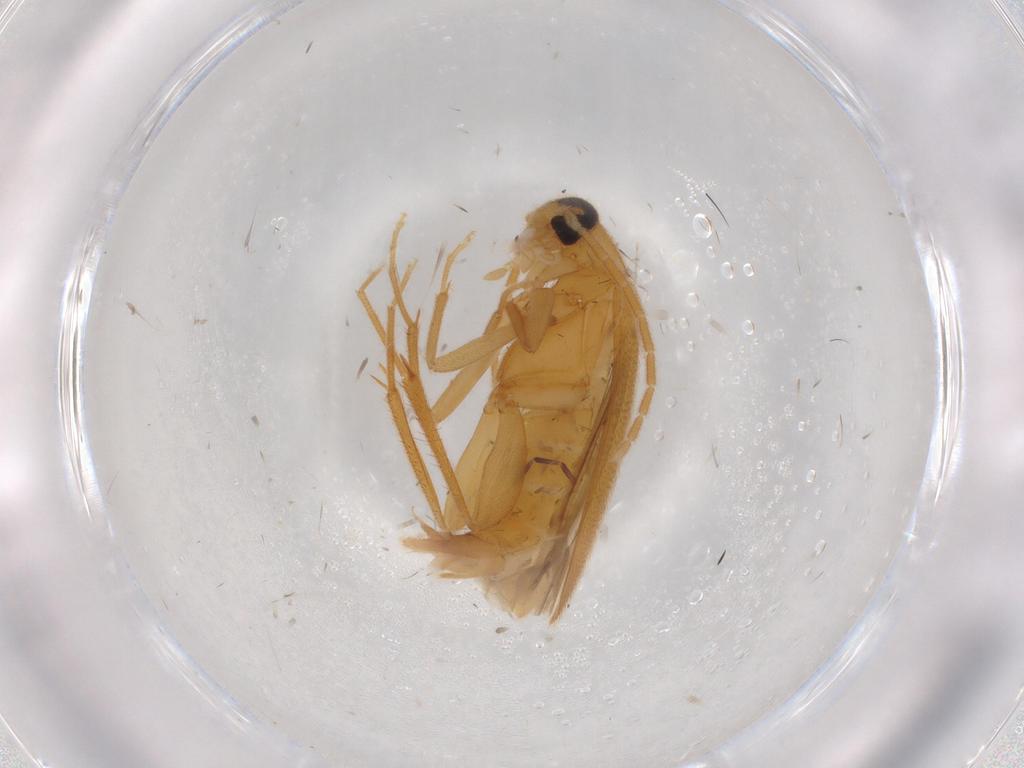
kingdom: Animalia
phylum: Arthropoda
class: Insecta
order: Coleoptera
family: Scraptiidae
